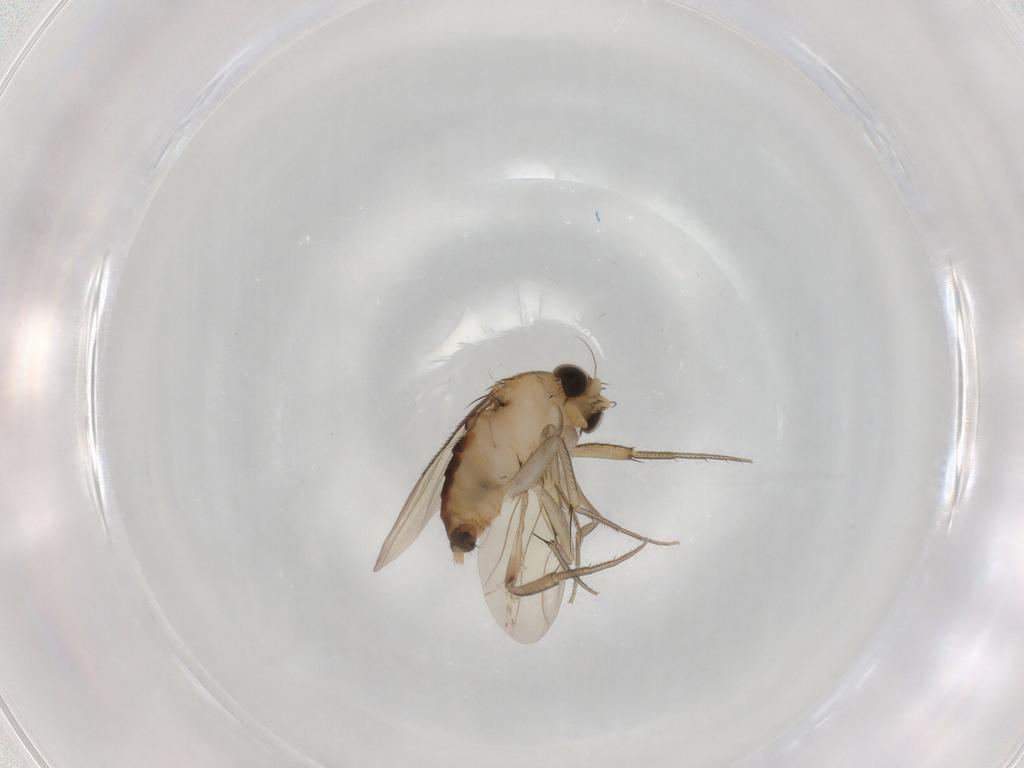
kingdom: Animalia
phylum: Arthropoda
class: Insecta
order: Diptera
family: Phoridae
